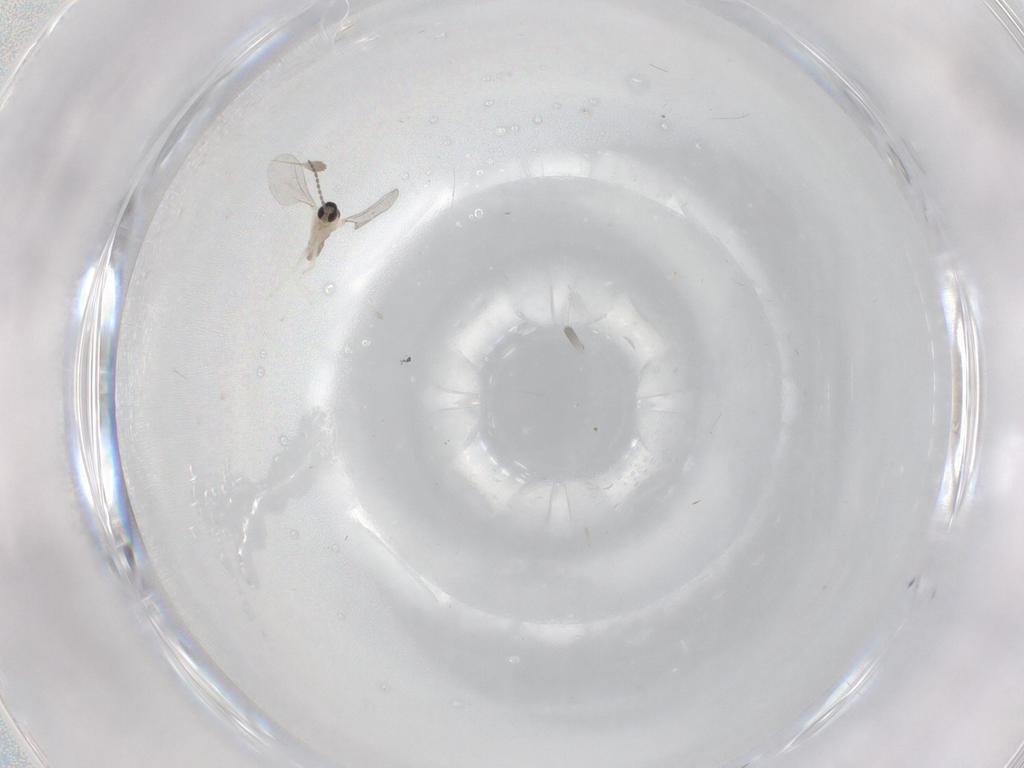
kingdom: Animalia
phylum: Arthropoda
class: Insecta
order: Diptera
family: Cecidomyiidae
